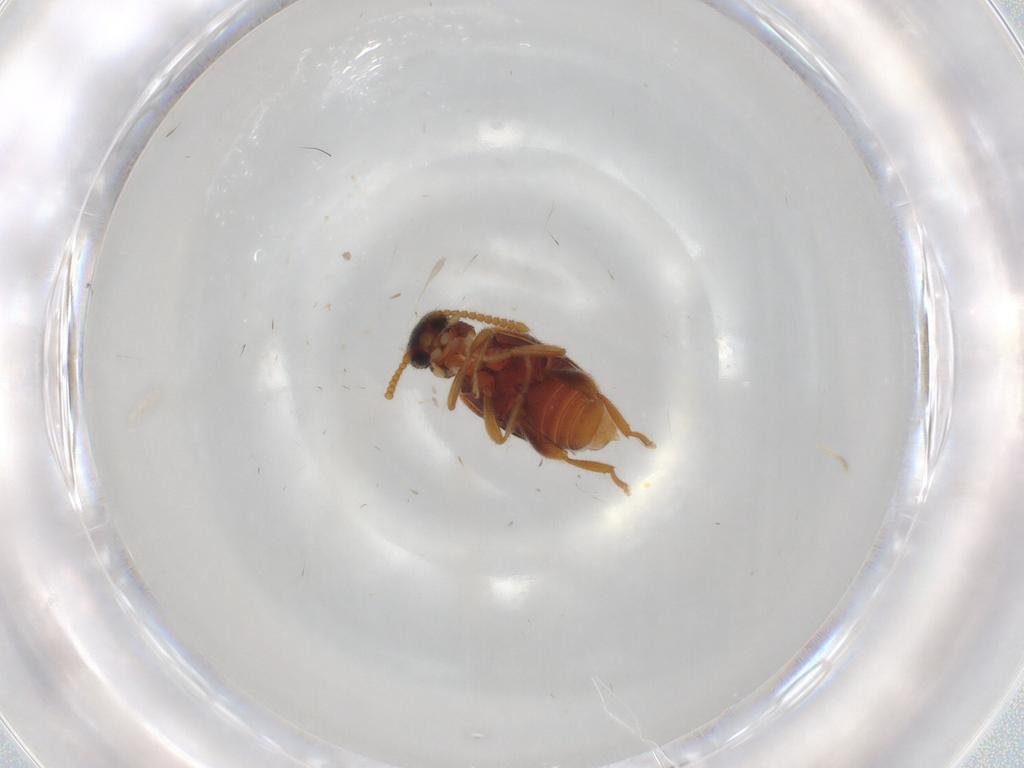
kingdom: Animalia
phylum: Arthropoda
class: Insecta
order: Coleoptera
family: Aderidae
